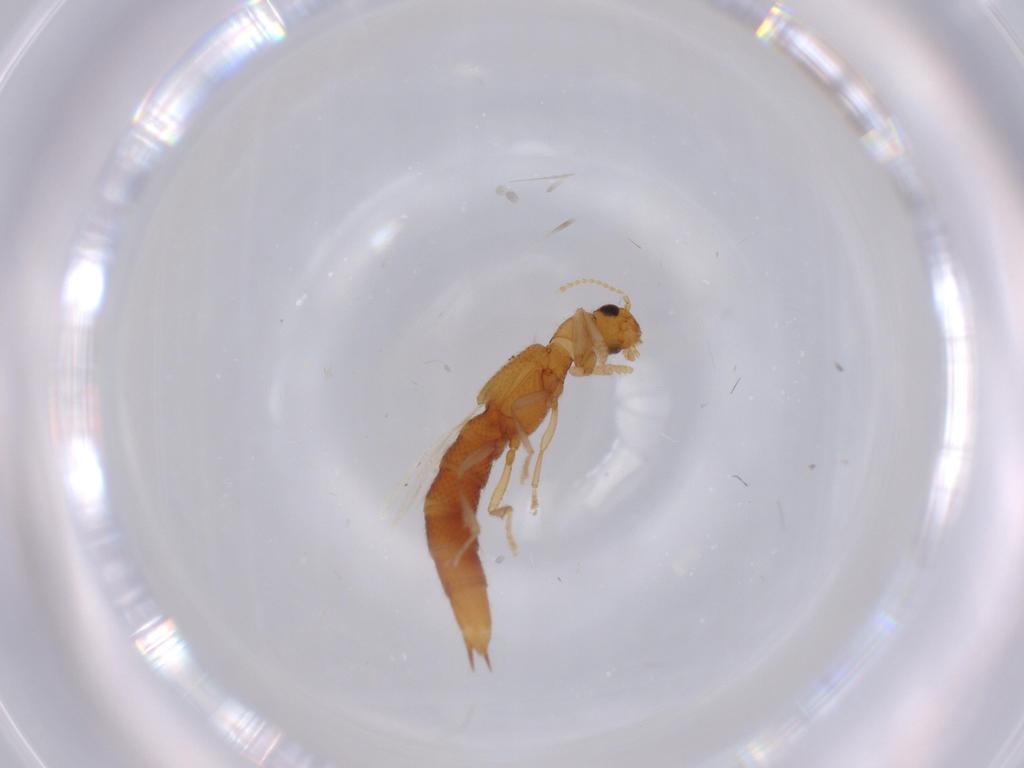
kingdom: Animalia
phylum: Arthropoda
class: Insecta
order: Coleoptera
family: Staphylinidae
